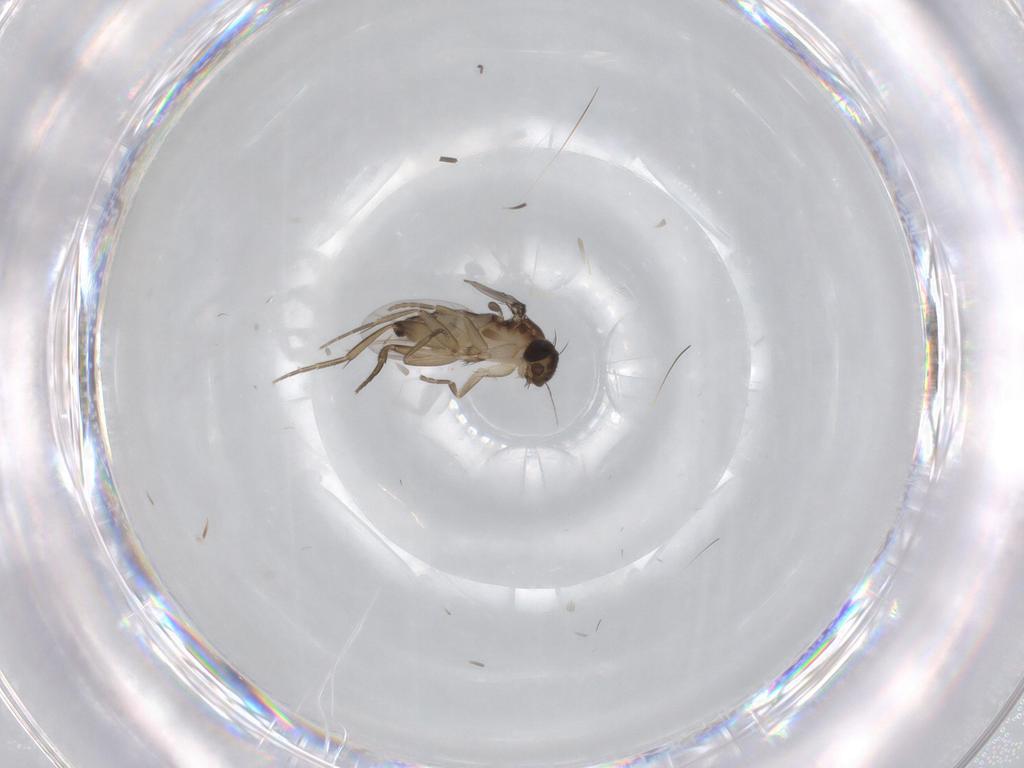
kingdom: Animalia
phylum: Arthropoda
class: Insecta
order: Diptera
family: Phoridae
